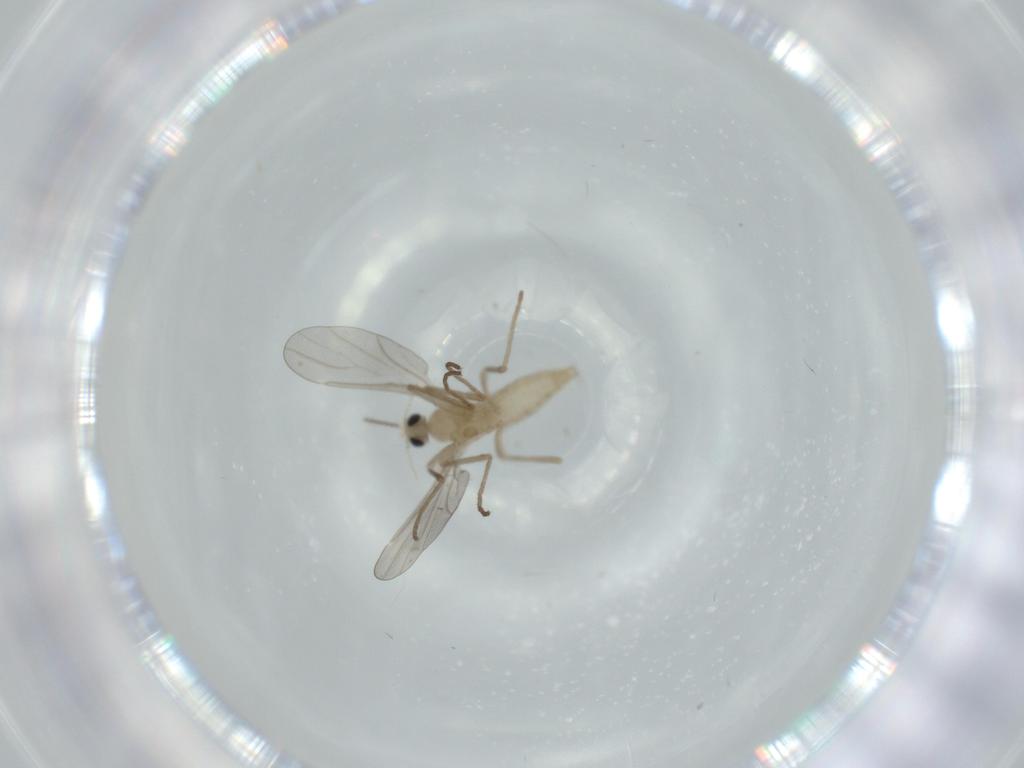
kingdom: Animalia
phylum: Arthropoda
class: Insecta
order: Diptera
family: Cecidomyiidae
